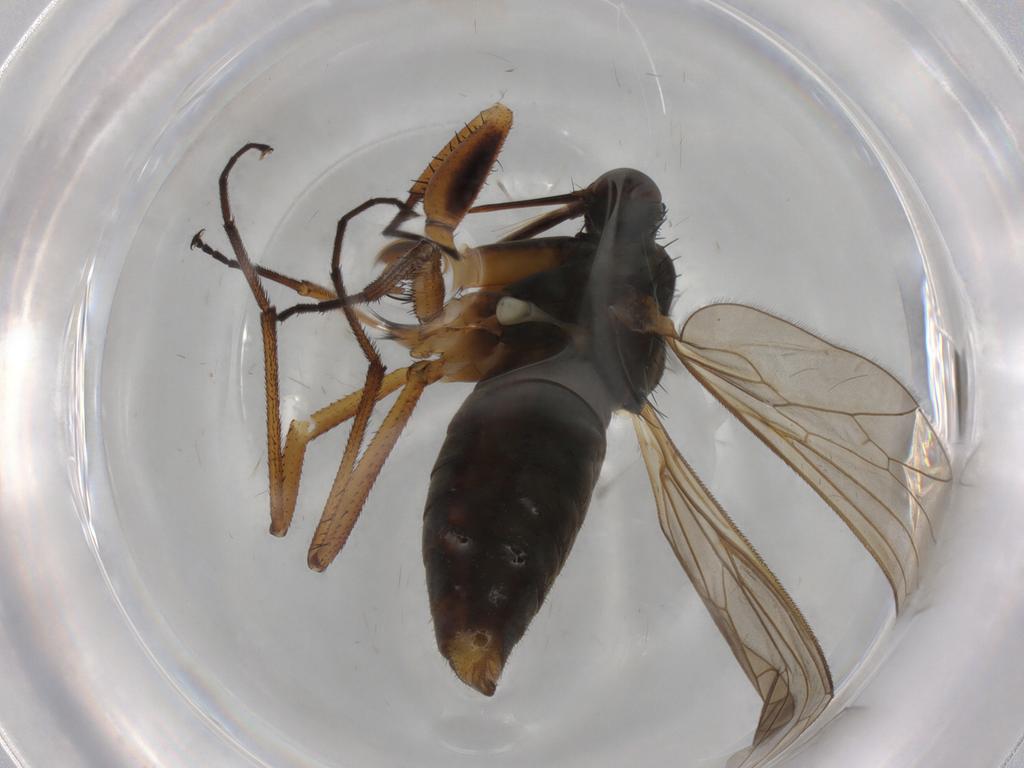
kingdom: Animalia
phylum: Arthropoda
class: Insecta
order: Diptera
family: Empididae
